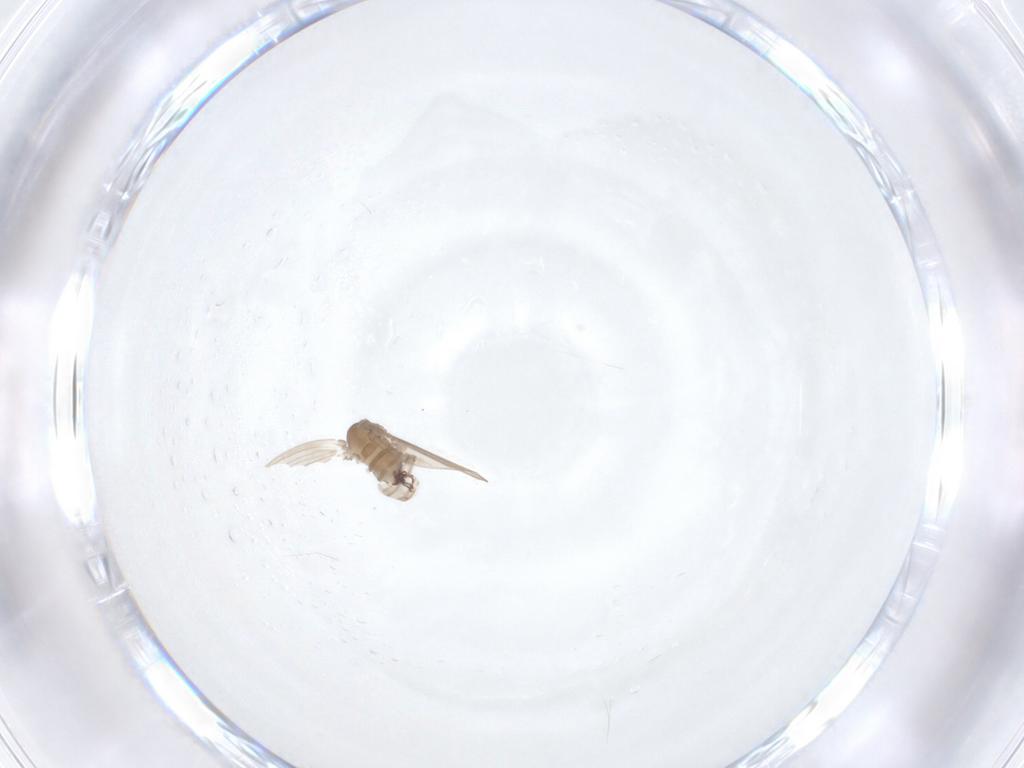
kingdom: Animalia
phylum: Arthropoda
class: Insecta
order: Diptera
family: Psychodidae
